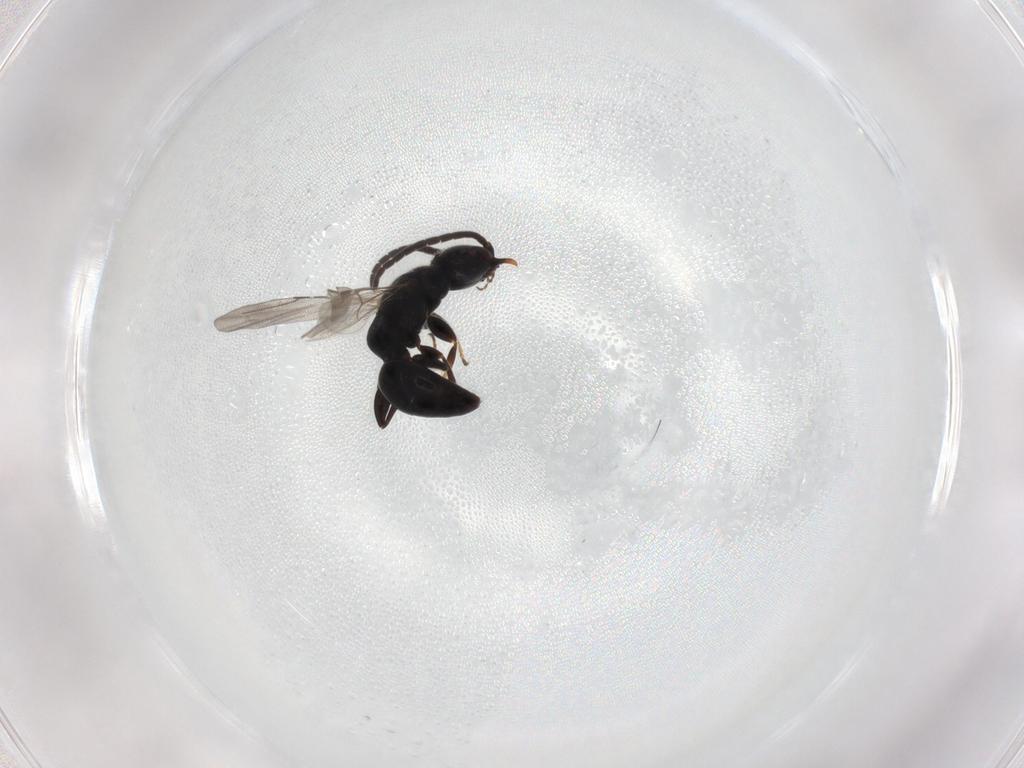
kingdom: Animalia
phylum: Arthropoda
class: Insecta
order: Hymenoptera
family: Bethylidae
